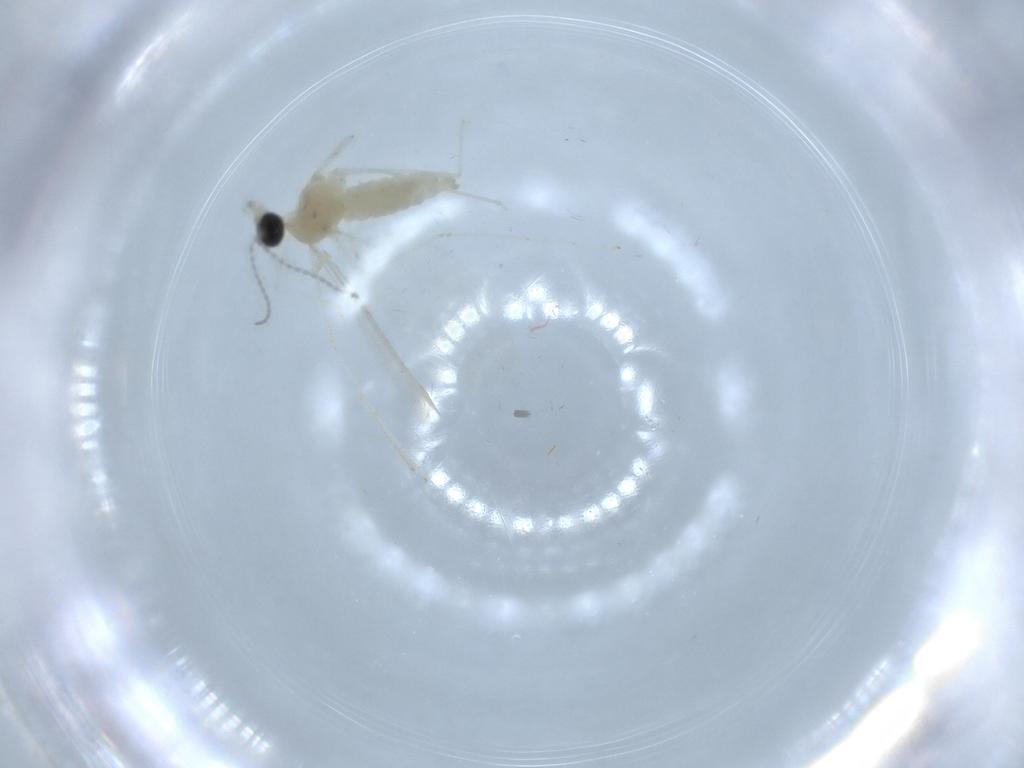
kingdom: Animalia
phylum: Arthropoda
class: Insecta
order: Diptera
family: Cecidomyiidae
